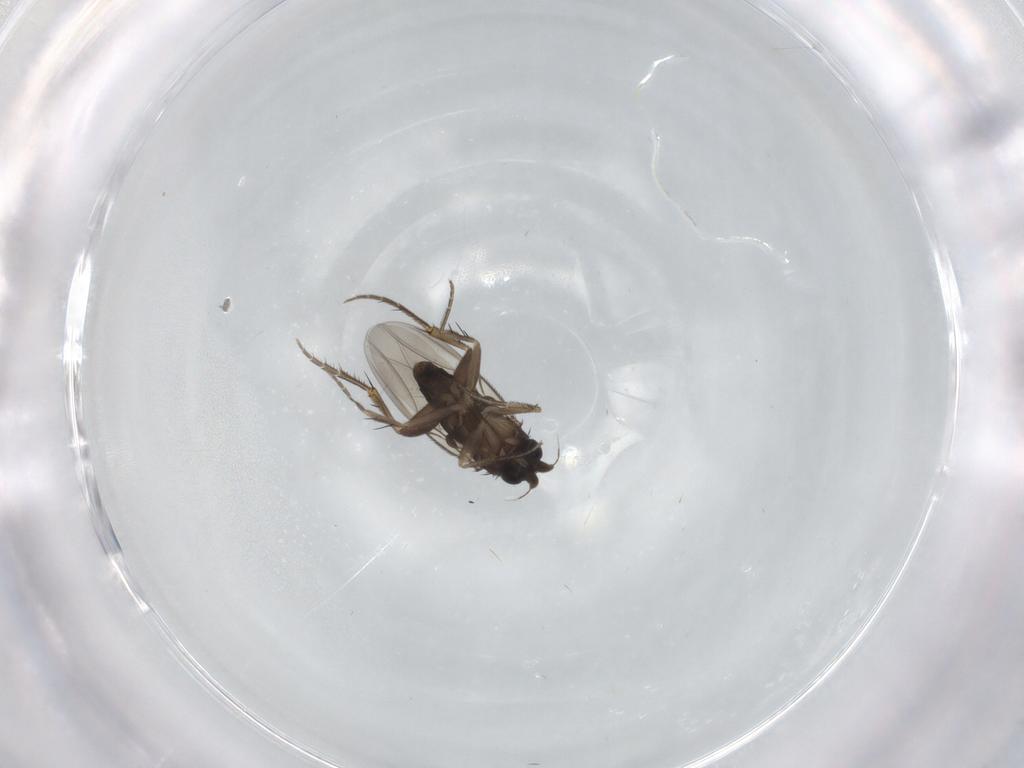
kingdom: Animalia
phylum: Arthropoda
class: Insecta
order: Diptera
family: Phoridae
